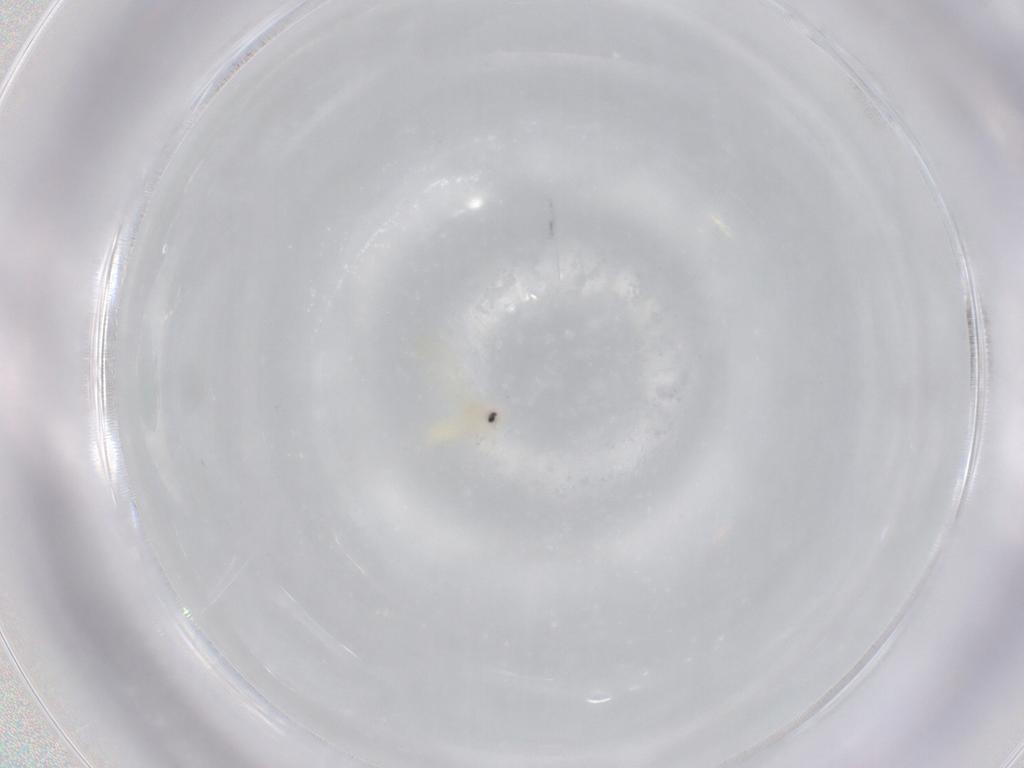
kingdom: Animalia
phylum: Arthropoda
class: Insecta
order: Hemiptera
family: Aleyrodidae
